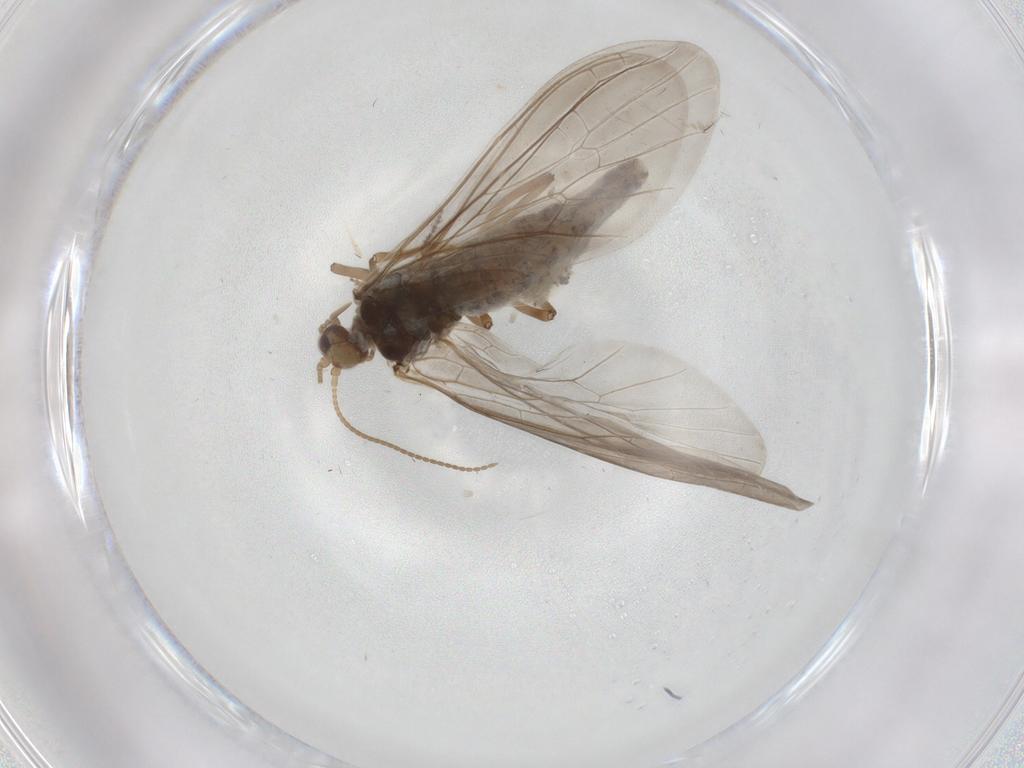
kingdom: Animalia
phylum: Arthropoda
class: Insecta
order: Neuroptera
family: Coniopterygidae
